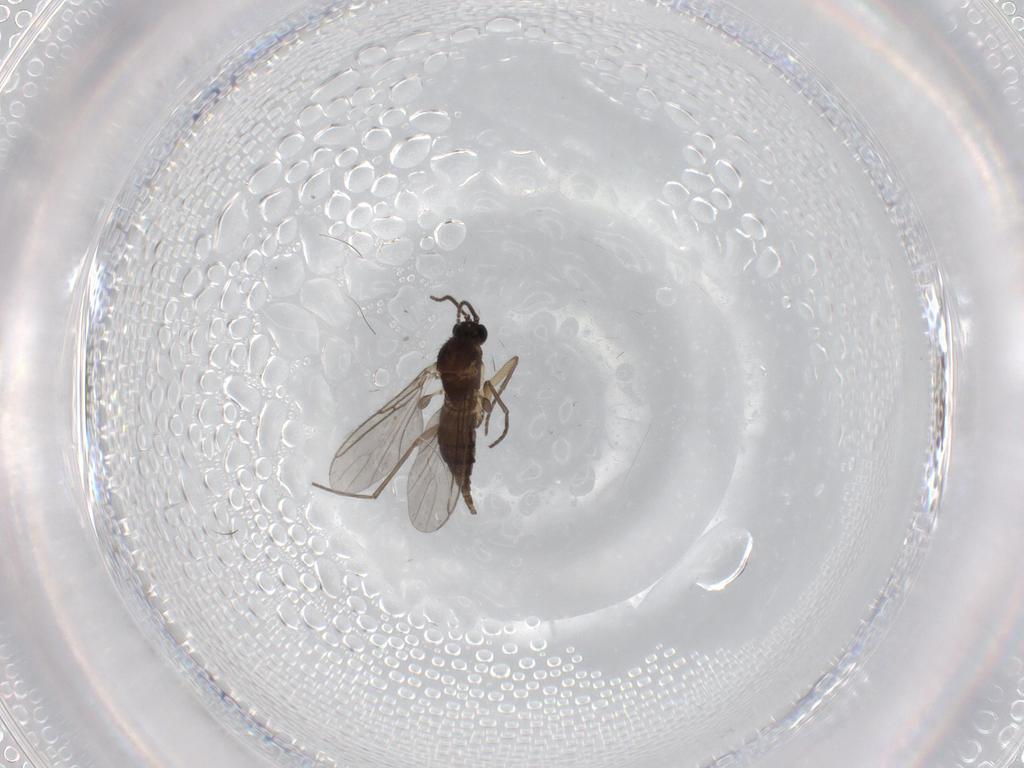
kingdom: Animalia
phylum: Arthropoda
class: Insecta
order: Diptera
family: Sciaridae
